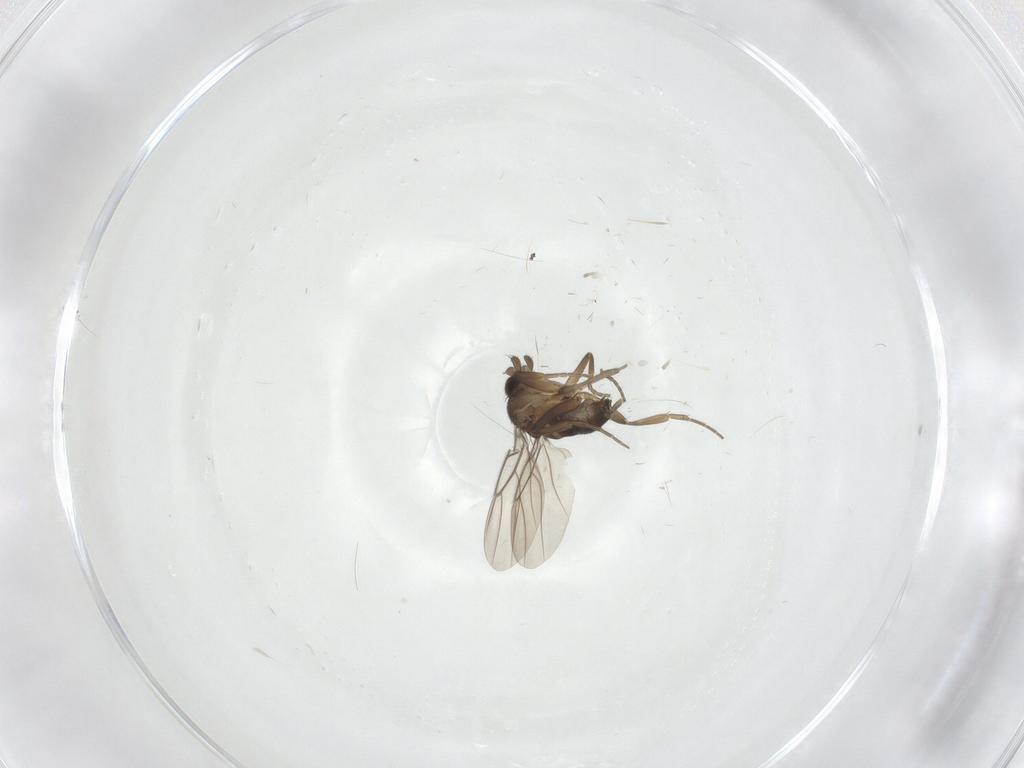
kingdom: Animalia
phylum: Arthropoda
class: Insecta
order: Diptera
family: Phoridae
